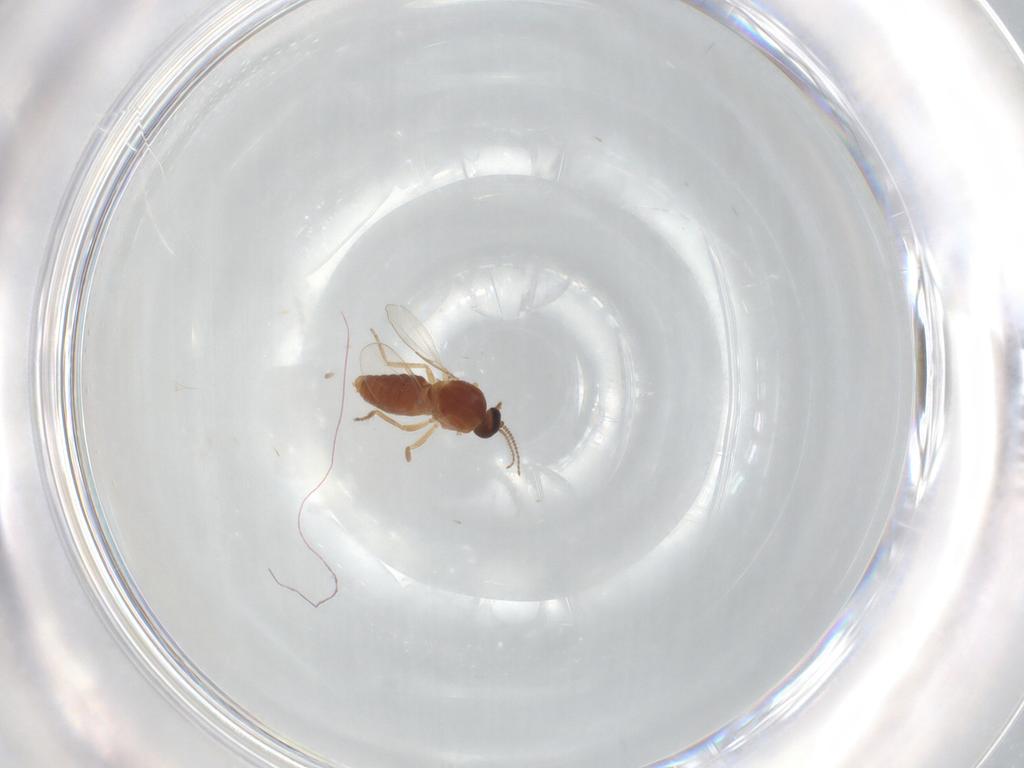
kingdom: Animalia
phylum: Arthropoda
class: Insecta
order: Diptera
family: Ceratopogonidae
